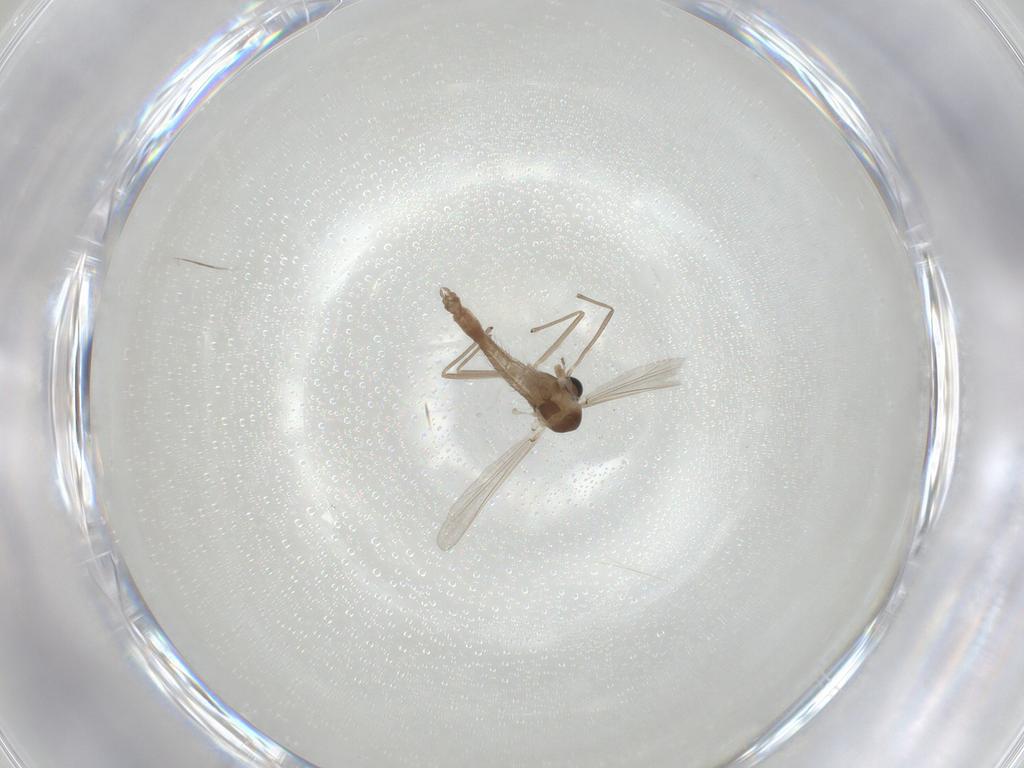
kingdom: Animalia
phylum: Arthropoda
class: Insecta
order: Diptera
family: Chironomidae
